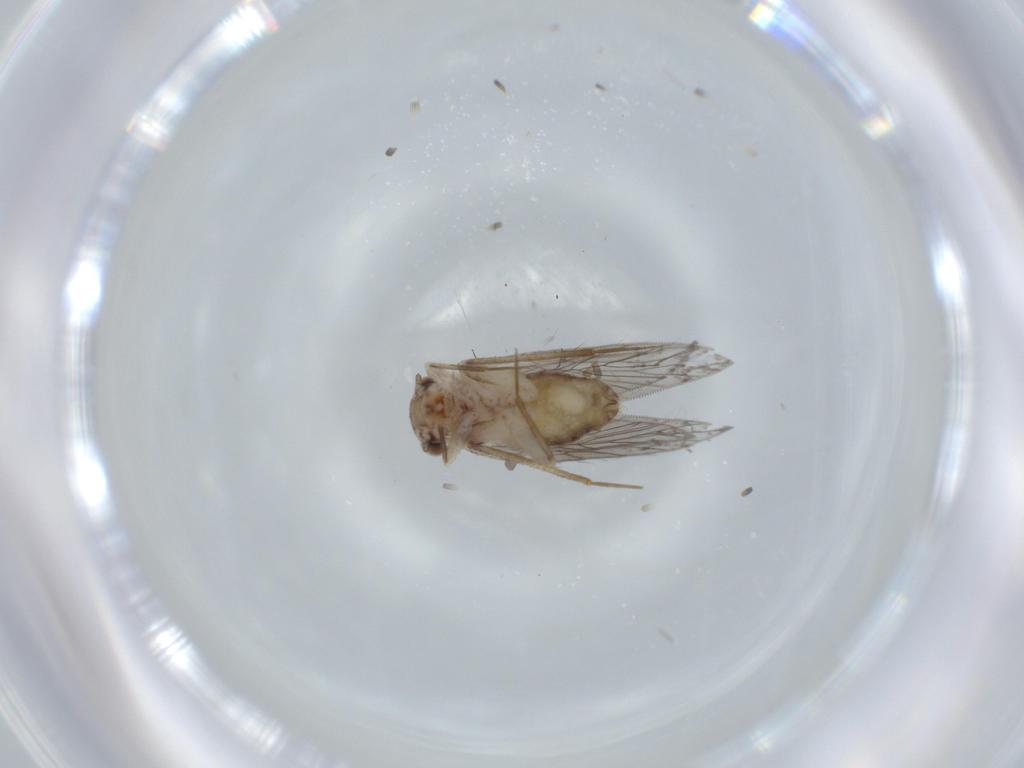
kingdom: Animalia
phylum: Arthropoda
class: Insecta
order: Psocodea
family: Lepidopsocidae
